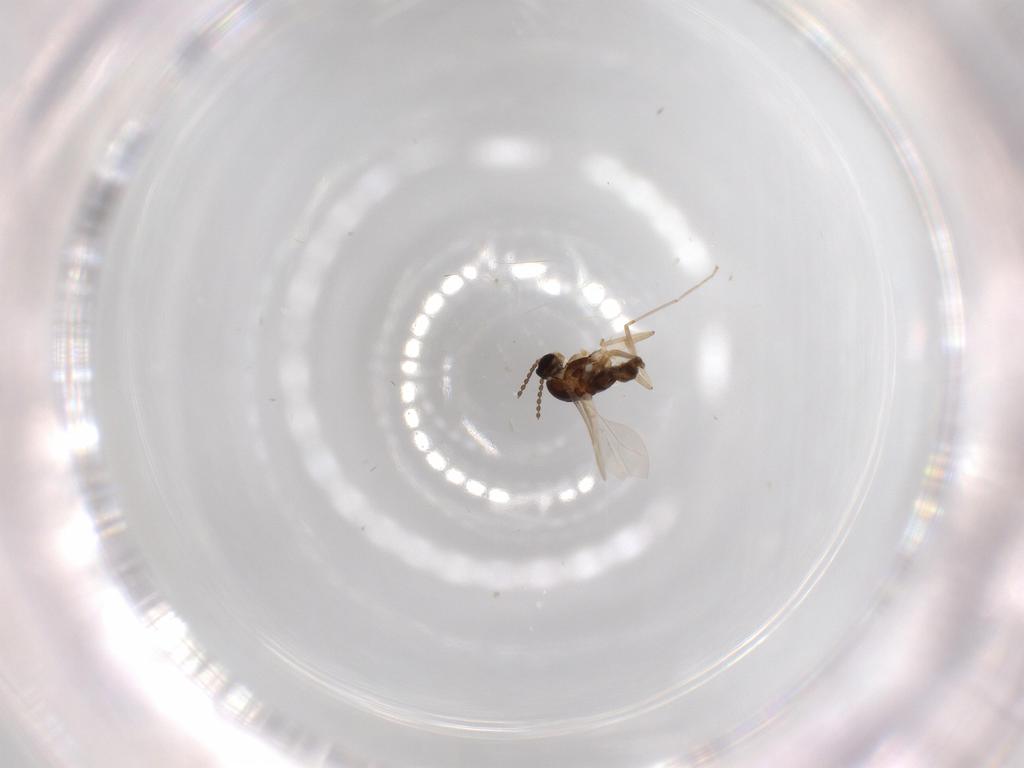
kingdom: Animalia
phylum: Arthropoda
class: Insecta
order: Diptera
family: Cecidomyiidae
